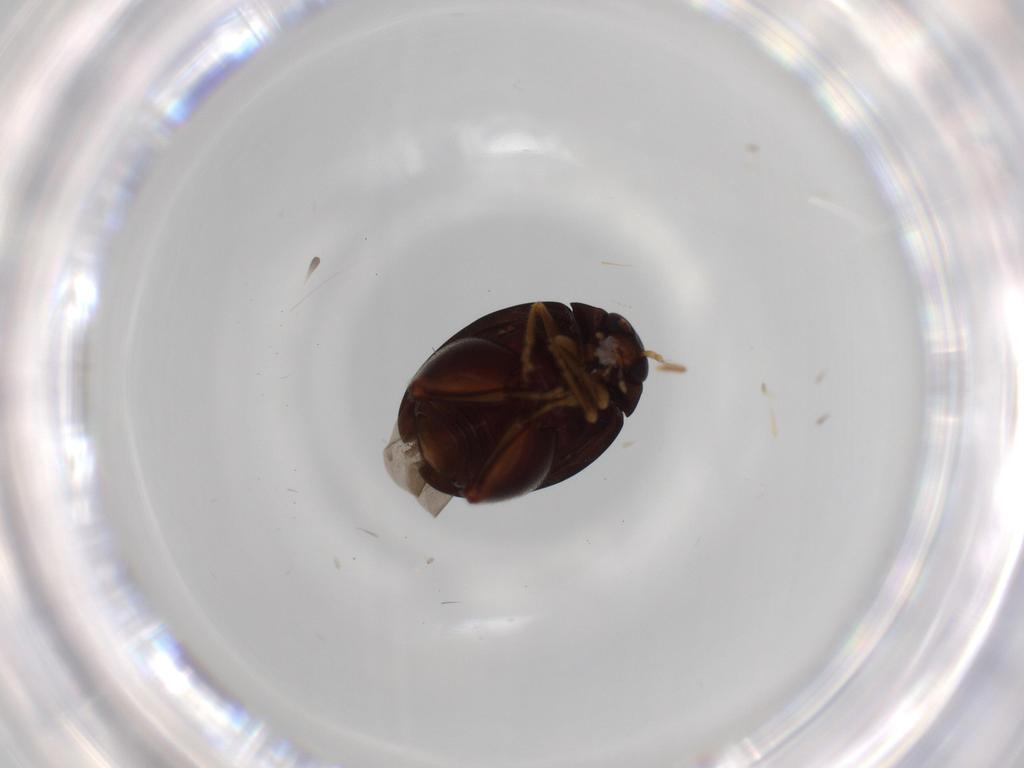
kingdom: Animalia
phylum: Arthropoda
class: Insecta
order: Coleoptera
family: Chrysomelidae
